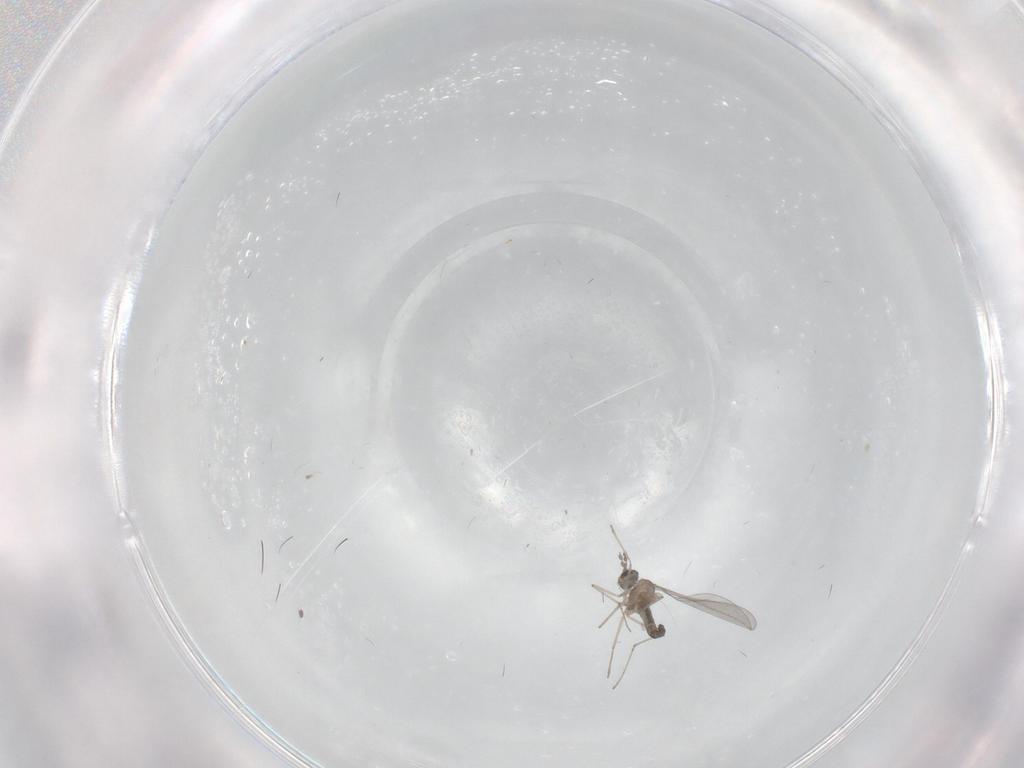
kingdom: Animalia
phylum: Arthropoda
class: Insecta
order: Diptera
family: Cecidomyiidae
